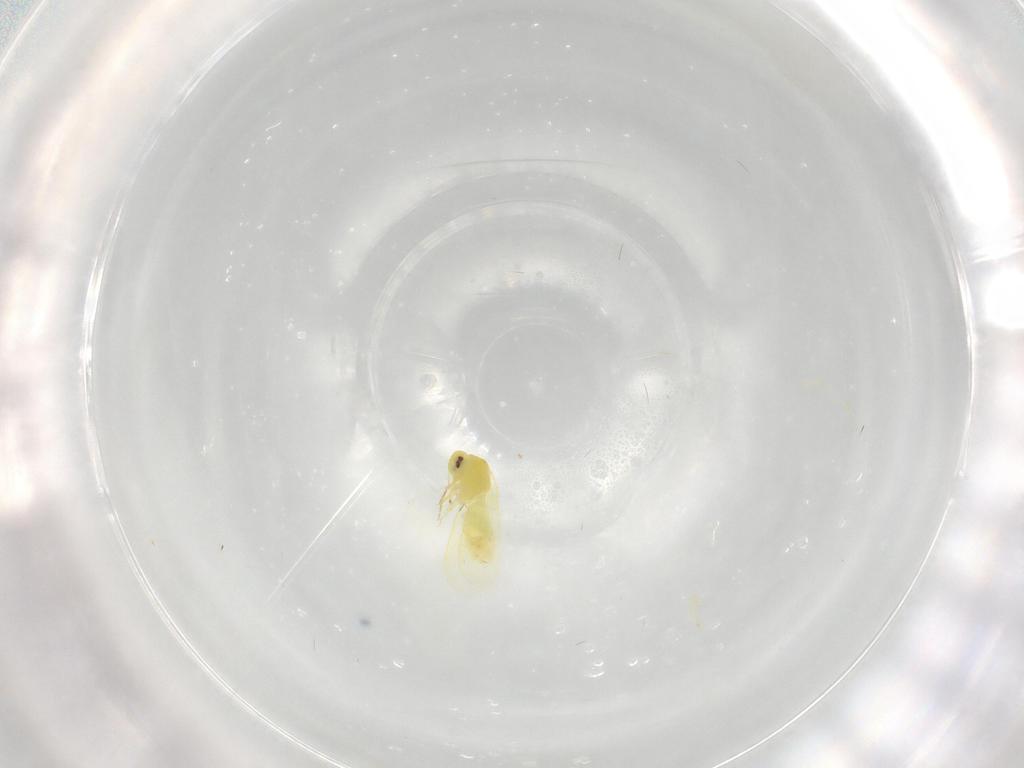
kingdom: Animalia
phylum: Arthropoda
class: Insecta
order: Hemiptera
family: Aleyrodidae
